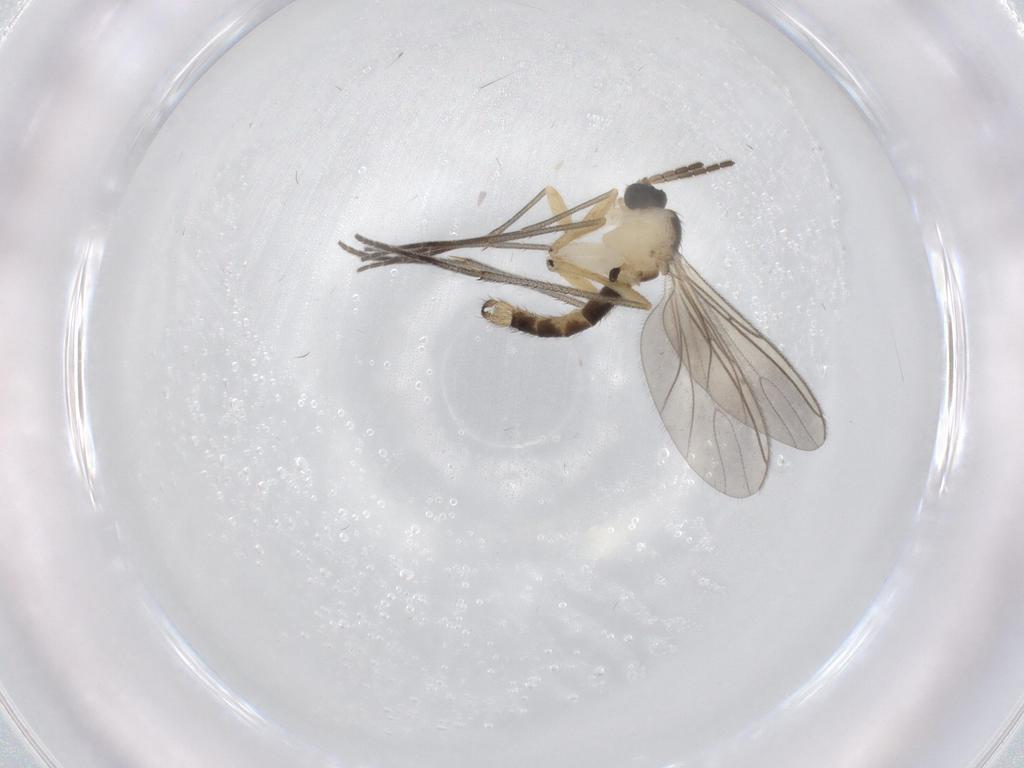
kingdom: Animalia
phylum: Arthropoda
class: Insecta
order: Diptera
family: Sciaridae
